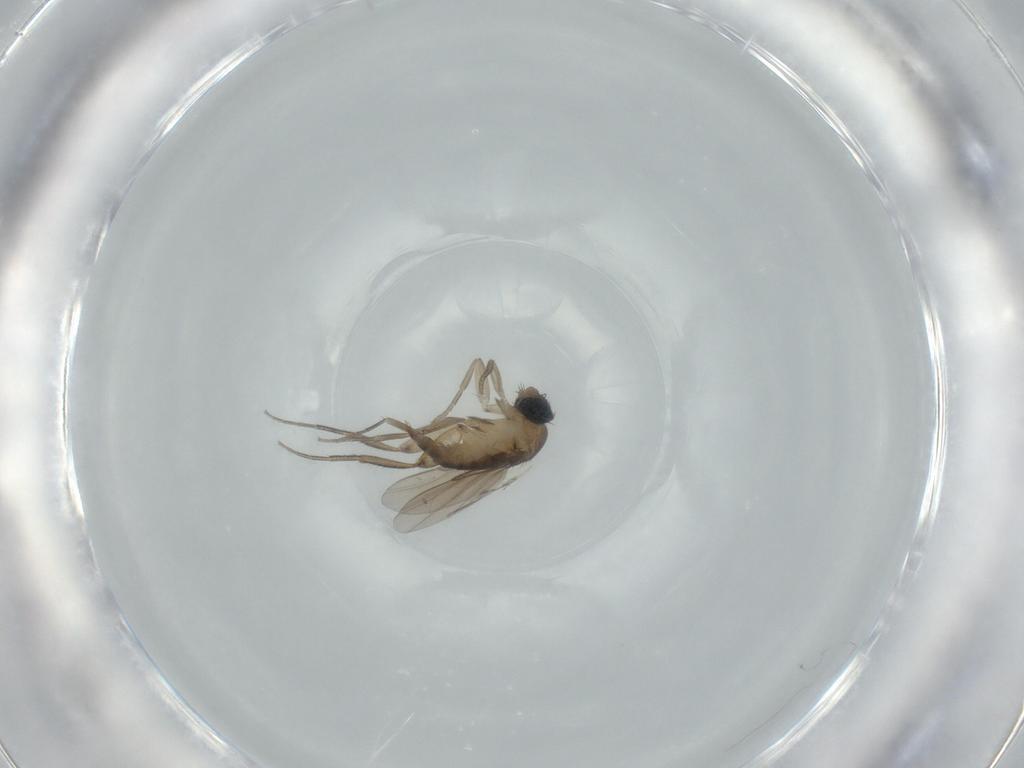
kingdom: Animalia
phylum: Arthropoda
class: Insecta
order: Diptera
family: Phoridae
